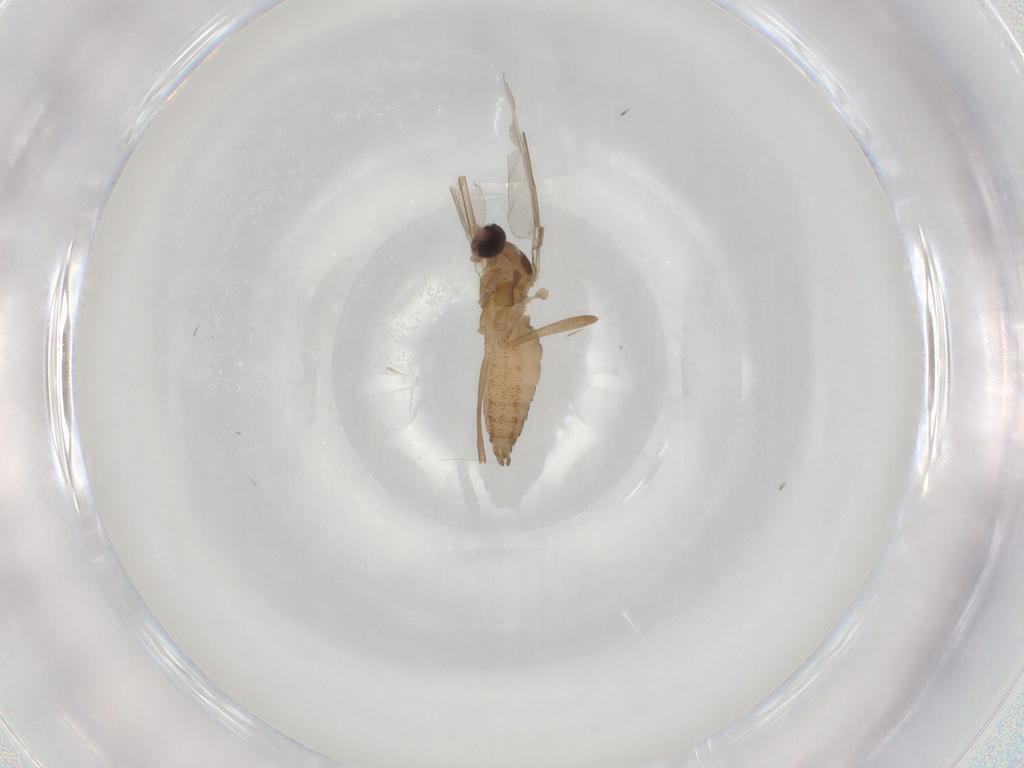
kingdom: Animalia
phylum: Arthropoda
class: Insecta
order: Diptera
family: Cecidomyiidae
